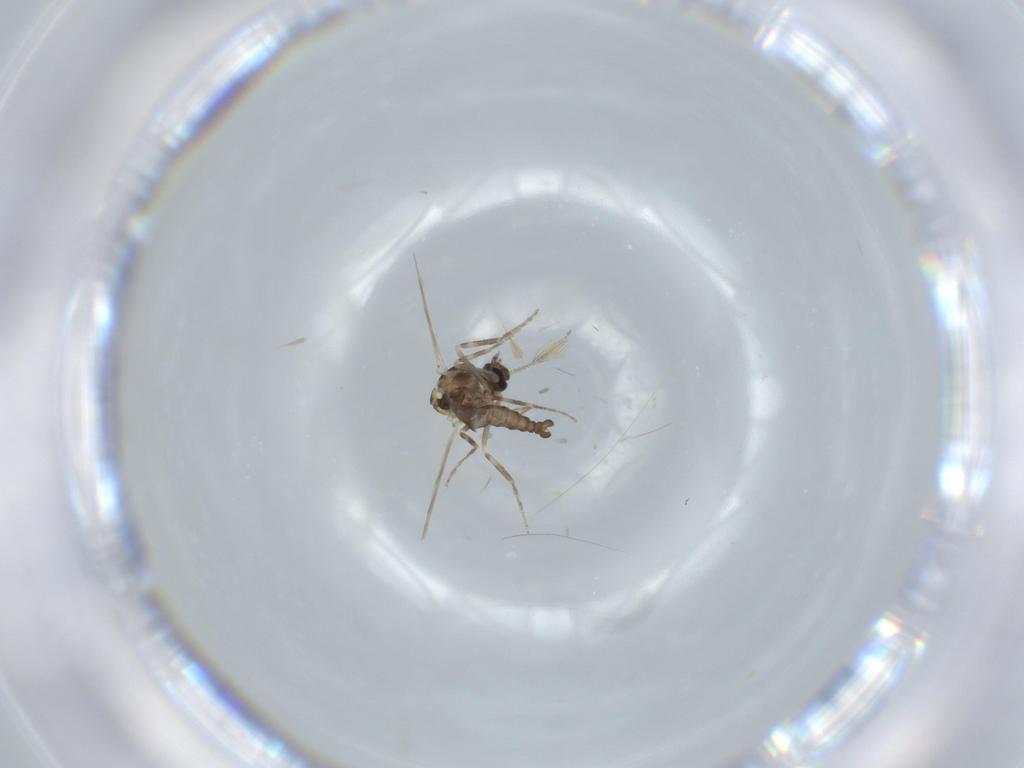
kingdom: Animalia
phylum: Arthropoda
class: Insecta
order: Diptera
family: Ceratopogonidae
